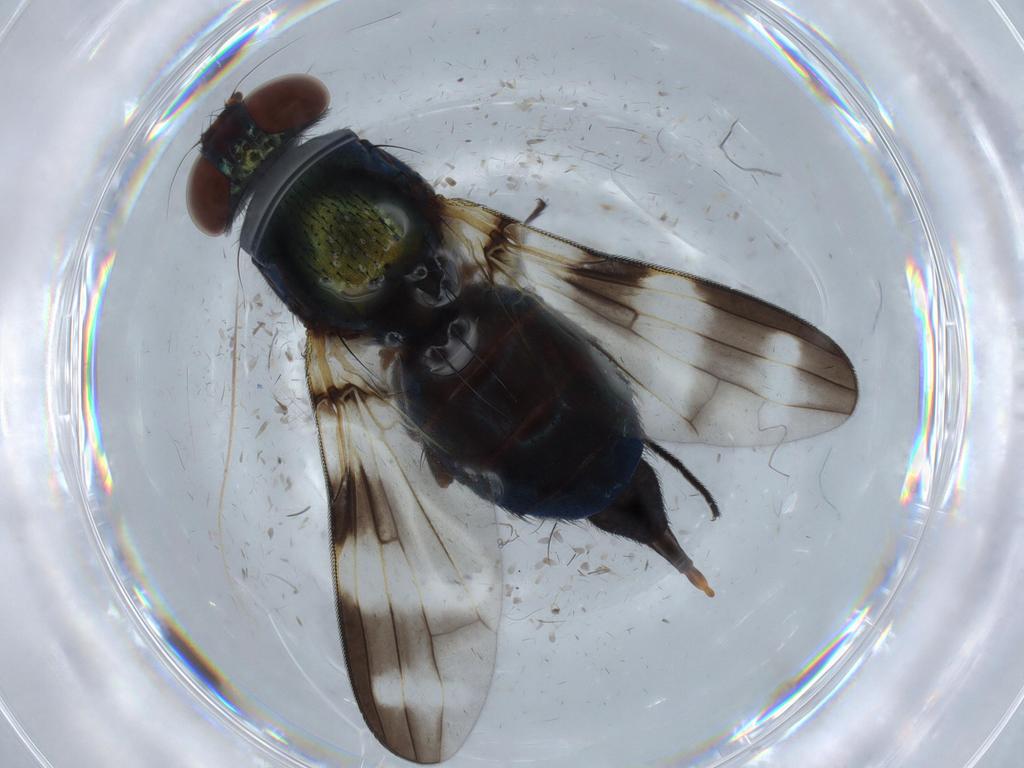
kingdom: Animalia
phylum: Arthropoda
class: Insecta
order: Diptera
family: Chironomidae
